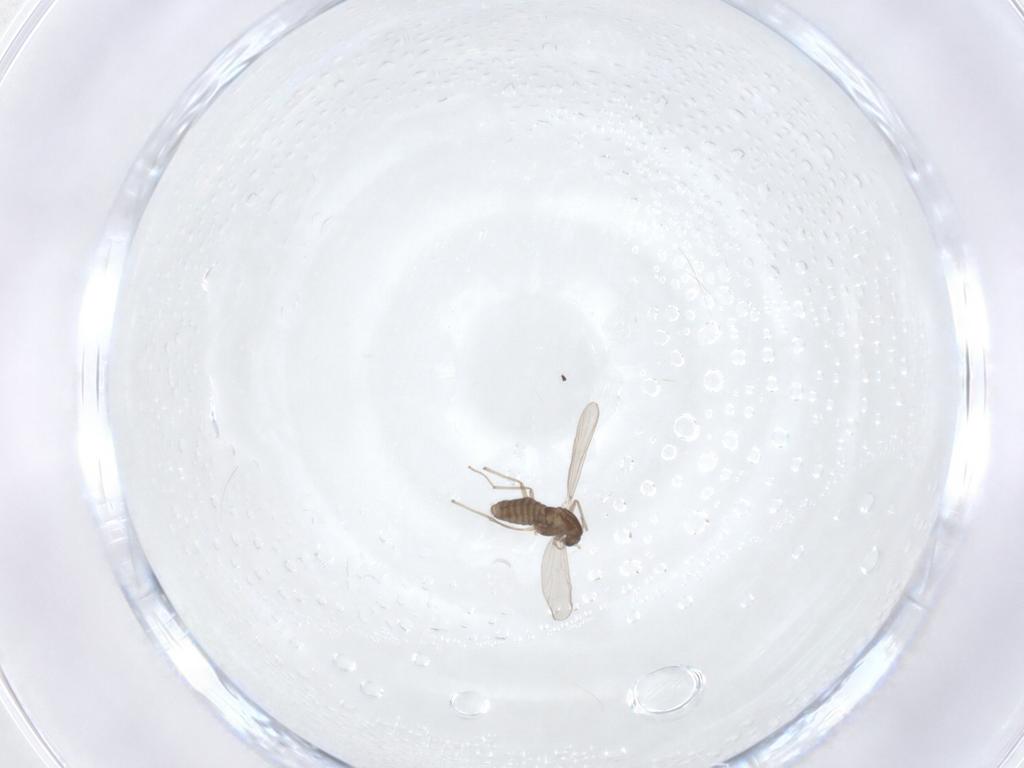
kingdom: Animalia
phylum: Arthropoda
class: Insecta
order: Diptera
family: Chironomidae
